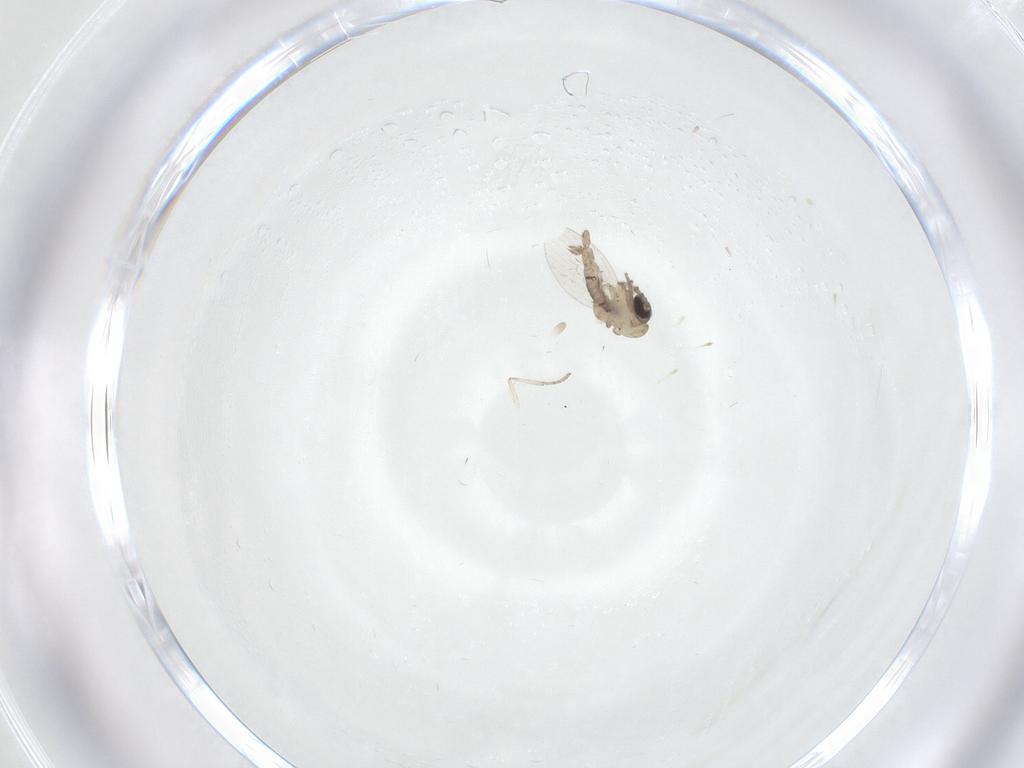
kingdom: Animalia
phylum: Arthropoda
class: Insecta
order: Diptera
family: Psychodidae
